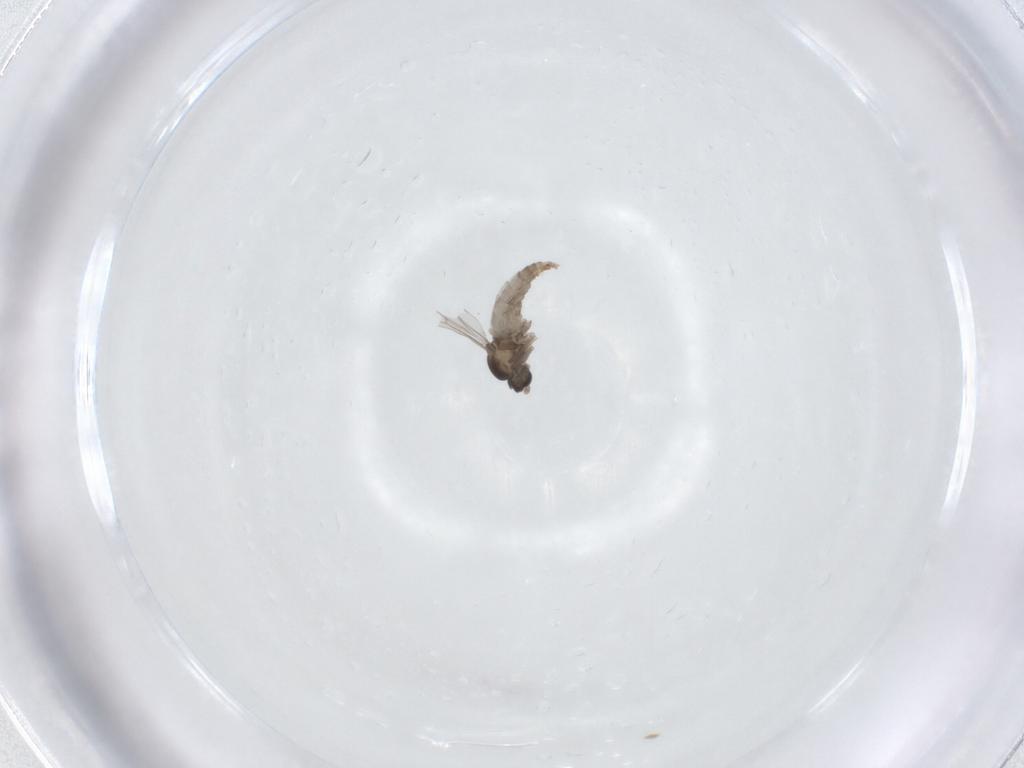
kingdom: Animalia
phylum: Arthropoda
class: Insecta
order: Diptera
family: Cecidomyiidae
